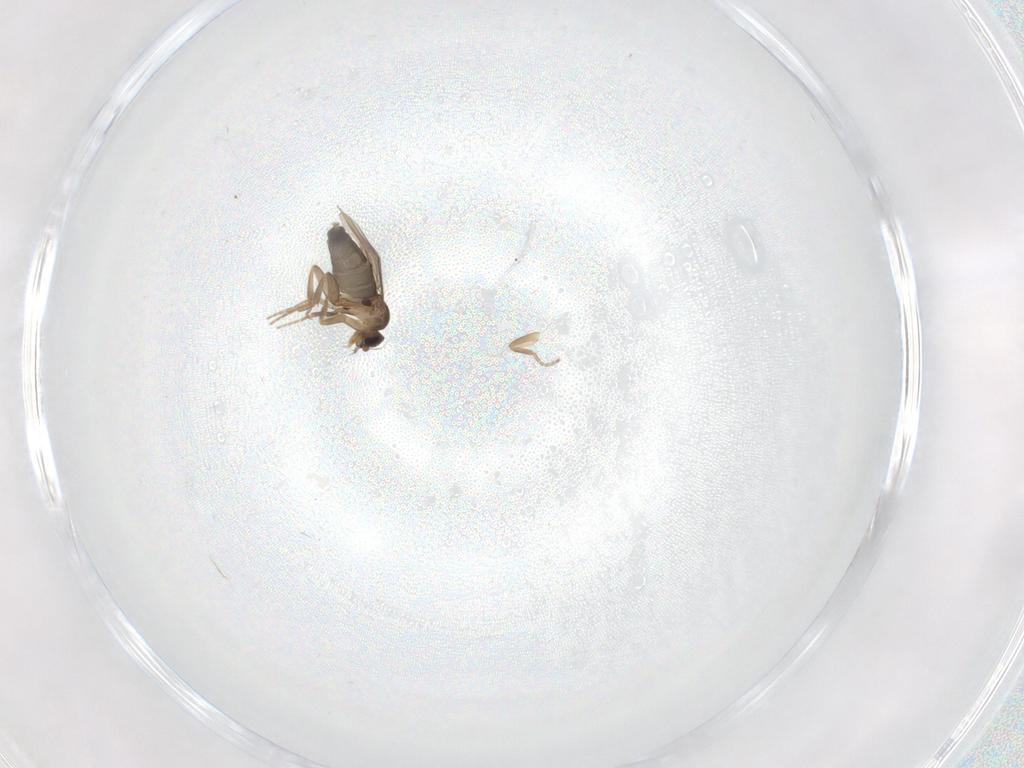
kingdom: Animalia
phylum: Arthropoda
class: Insecta
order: Diptera
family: Phoridae
